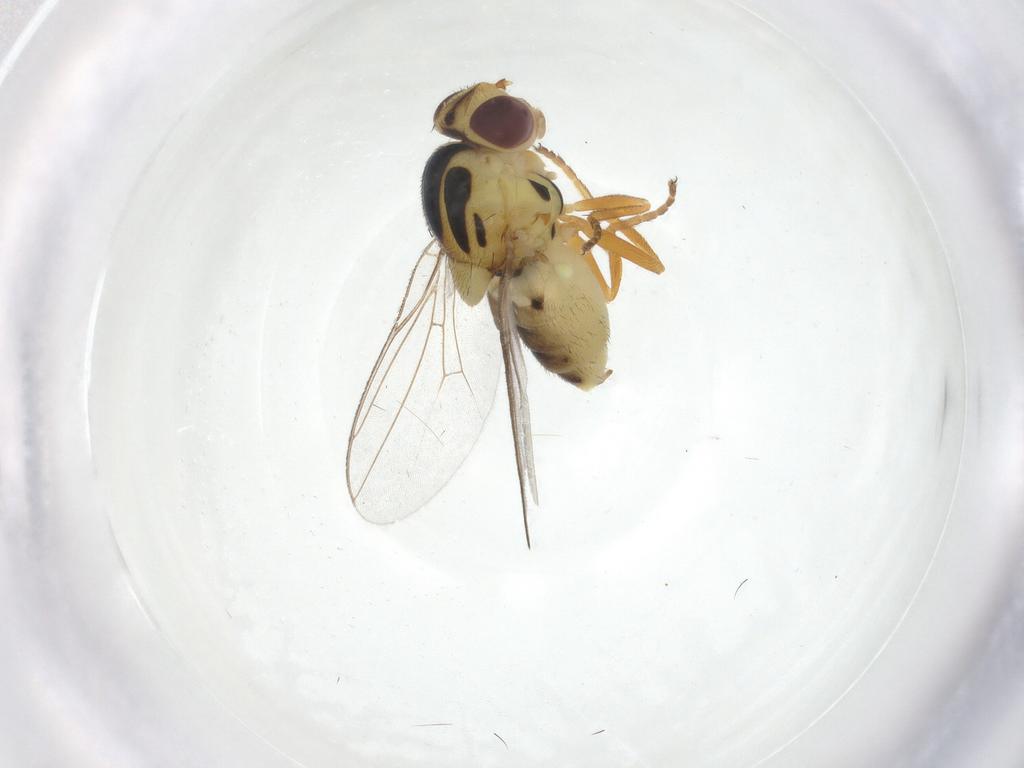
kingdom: Animalia
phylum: Arthropoda
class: Insecta
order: Diptera
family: Chloropidae
